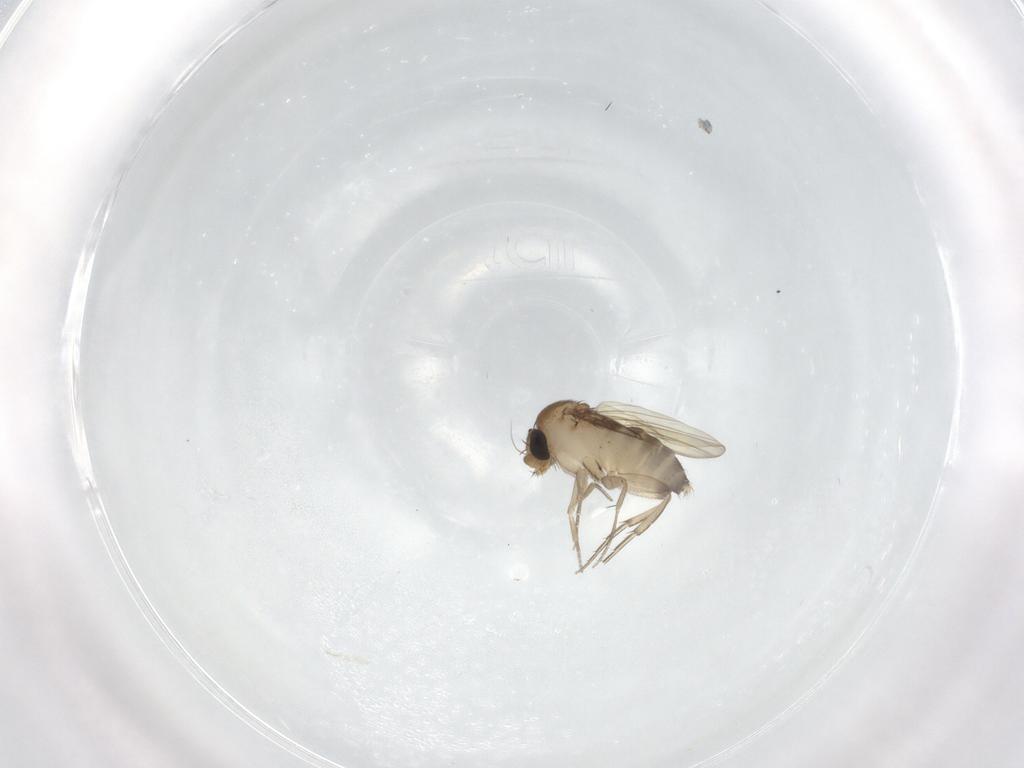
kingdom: Animalia
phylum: Arthropoda
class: Insecta
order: Diptera
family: Phoridae
